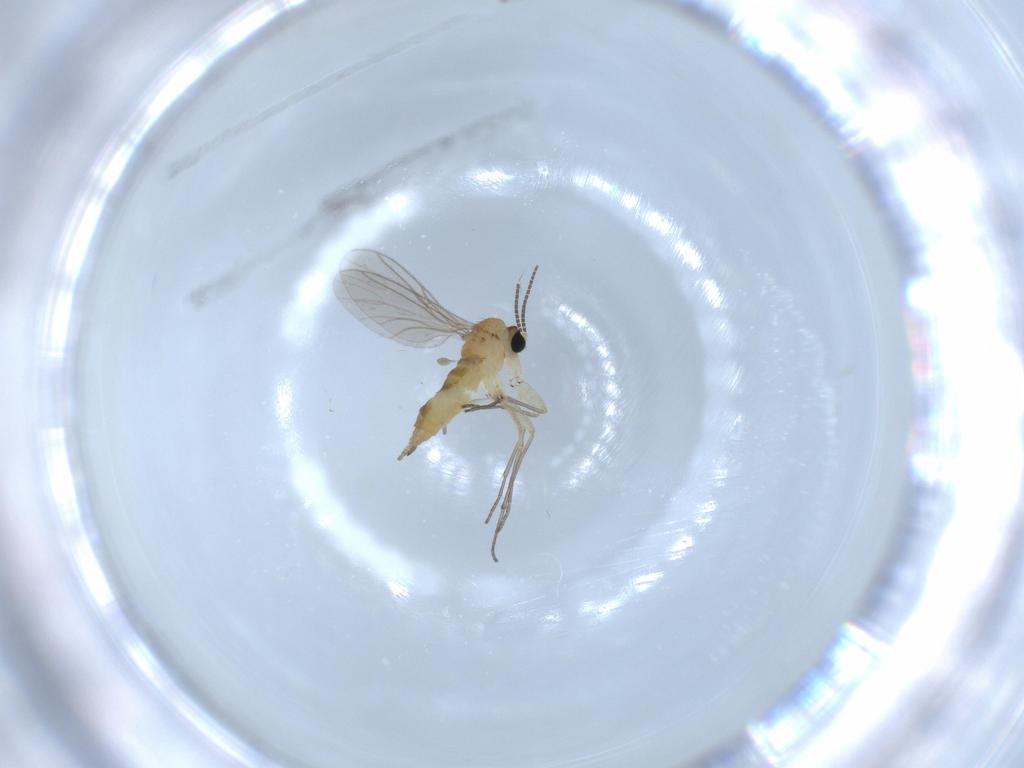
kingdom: Animalia
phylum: Arthropoda
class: Insecta
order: Diptera
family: Sciaridae
